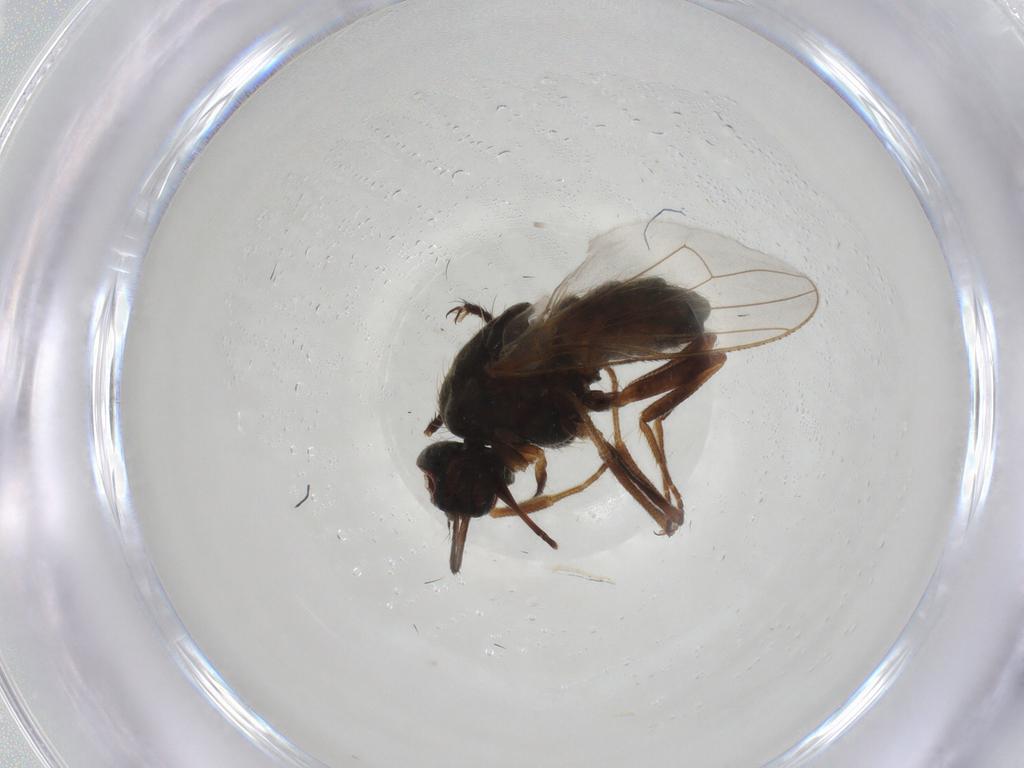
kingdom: Animalia
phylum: Arthropoda
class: Insecta
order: Diptera
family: Muscidae
